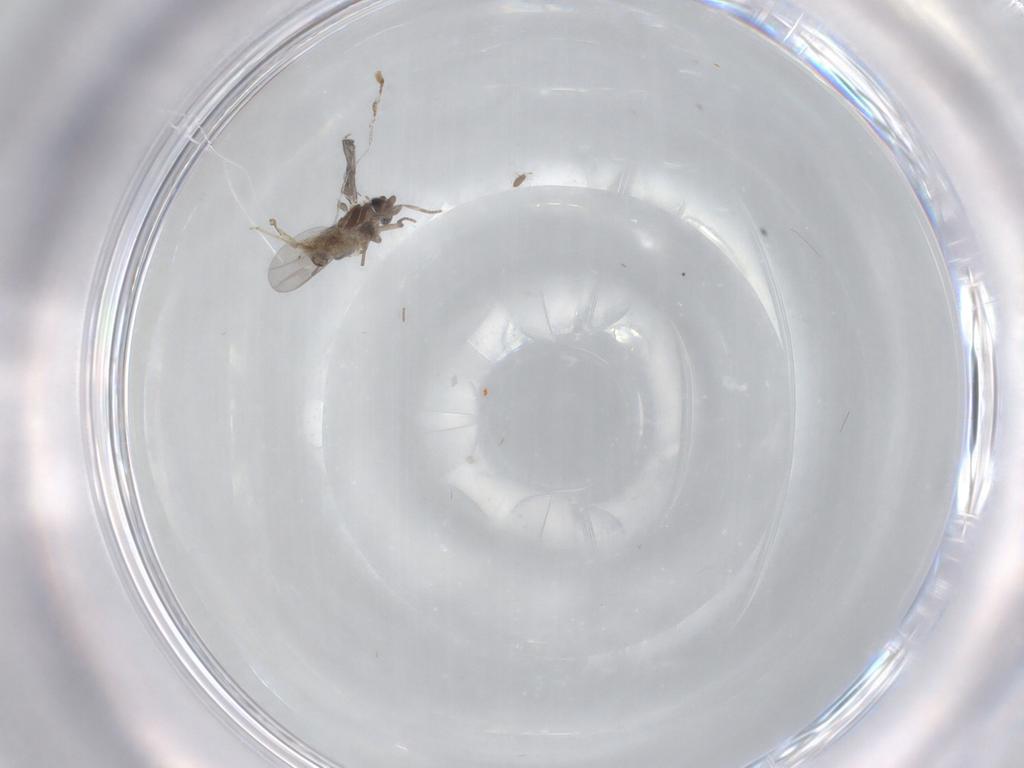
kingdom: Animalia
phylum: Arthropoda
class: Insecta
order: Diptera
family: Chironomidae
